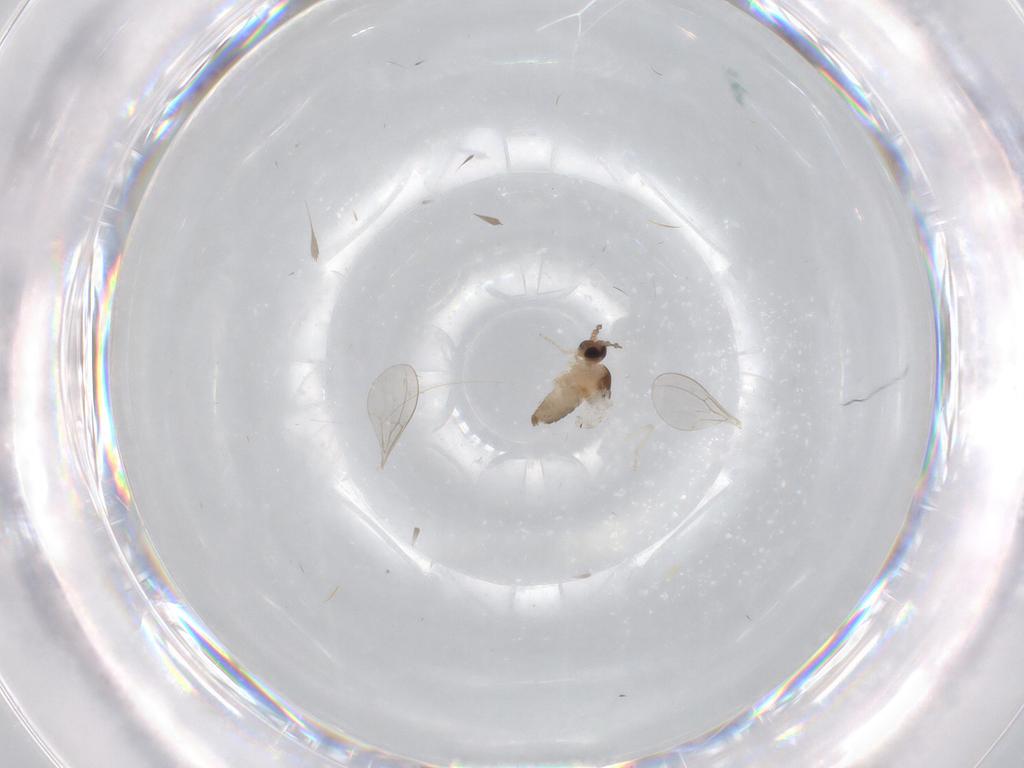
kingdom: Animalia
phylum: Arthropoda
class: Insecta
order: Diptera
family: Cecidomyiidae
